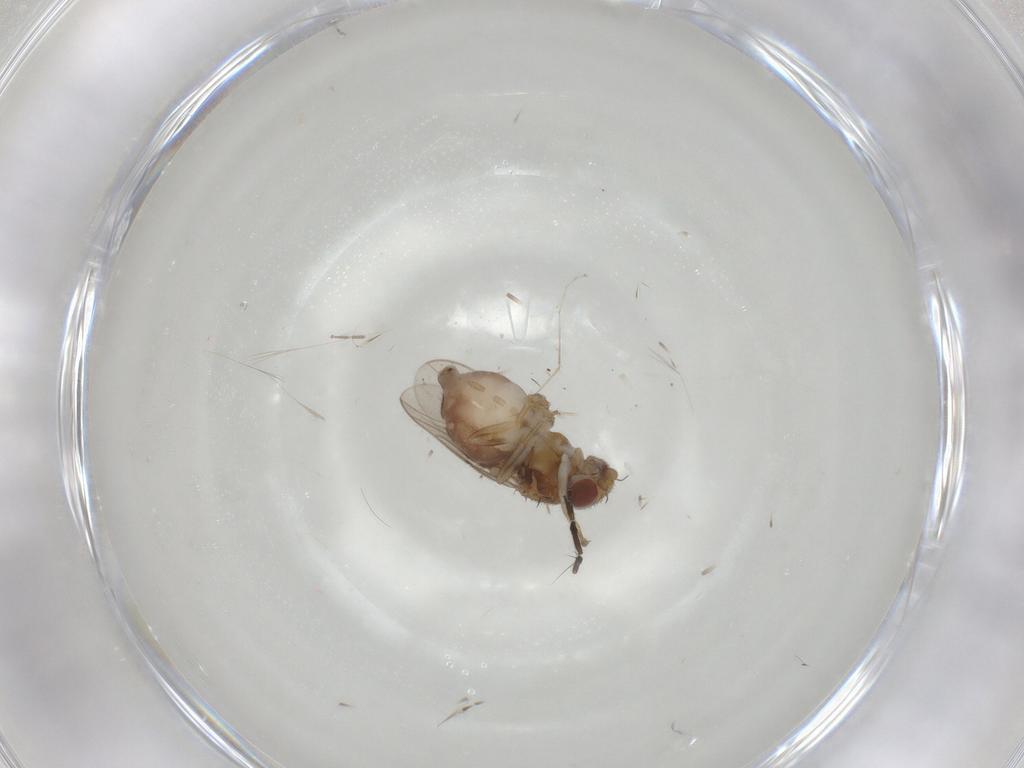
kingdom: Animalia
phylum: Arthropoda
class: Insecta
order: Diptera
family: Chloropidae
